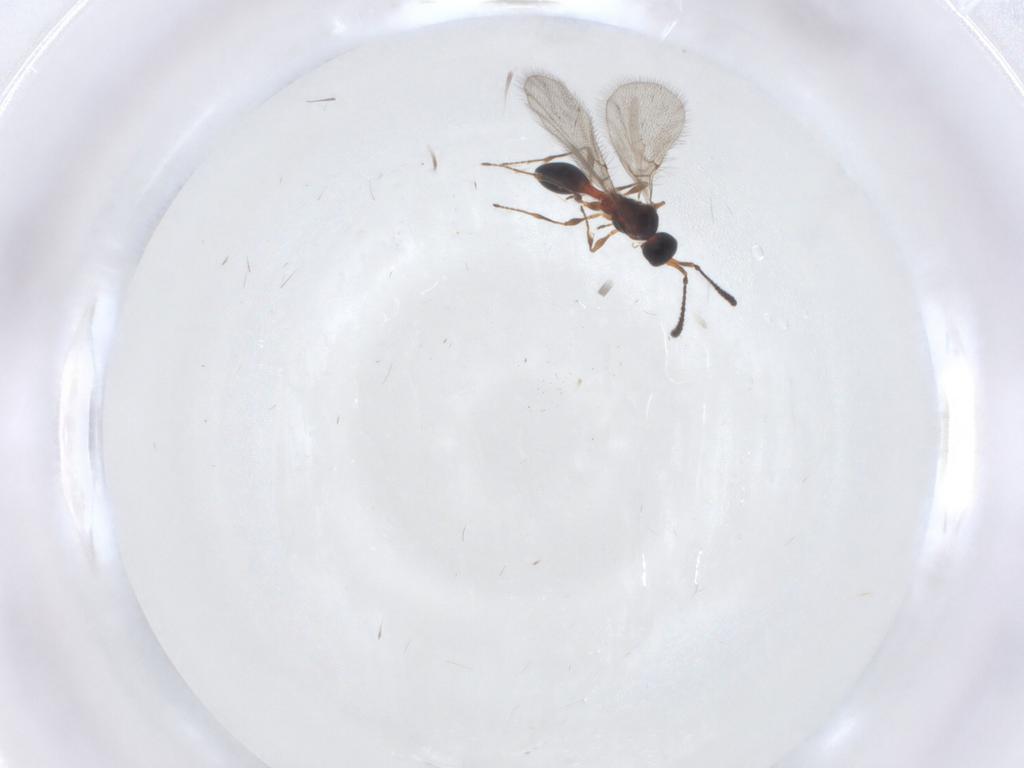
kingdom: Animalia
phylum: Arthropoda
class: Insecta
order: Hymenoptera
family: Diapriidae
